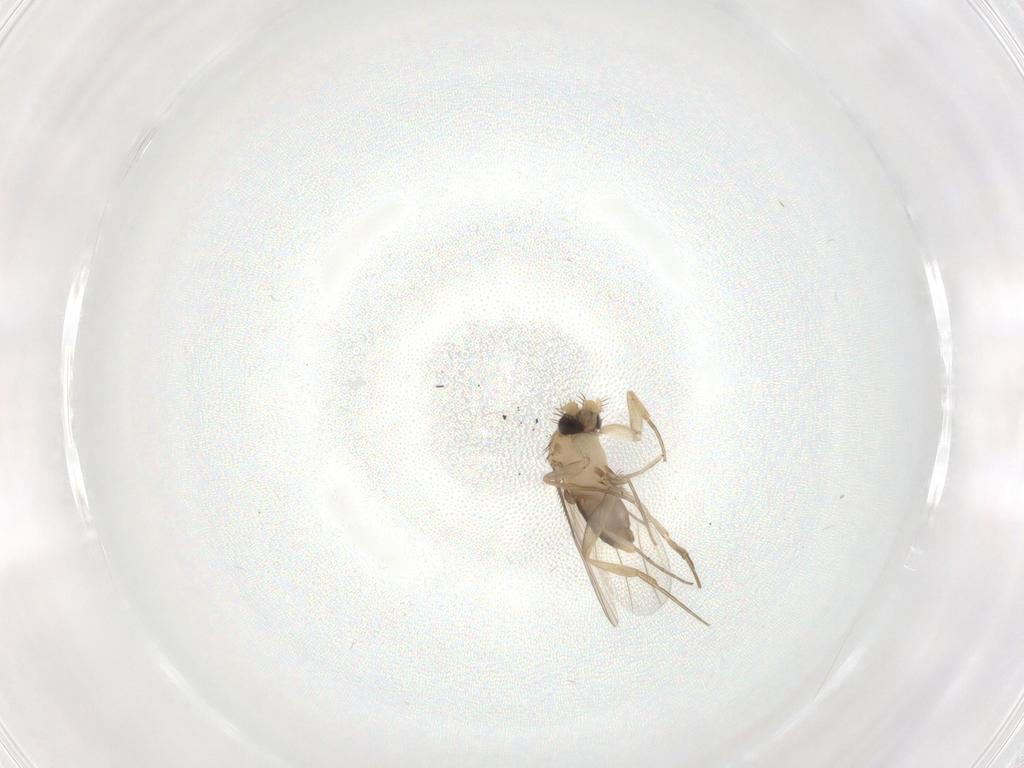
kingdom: Animalia
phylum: Arthropoda
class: Insecta
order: Diptera
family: Phoridae
